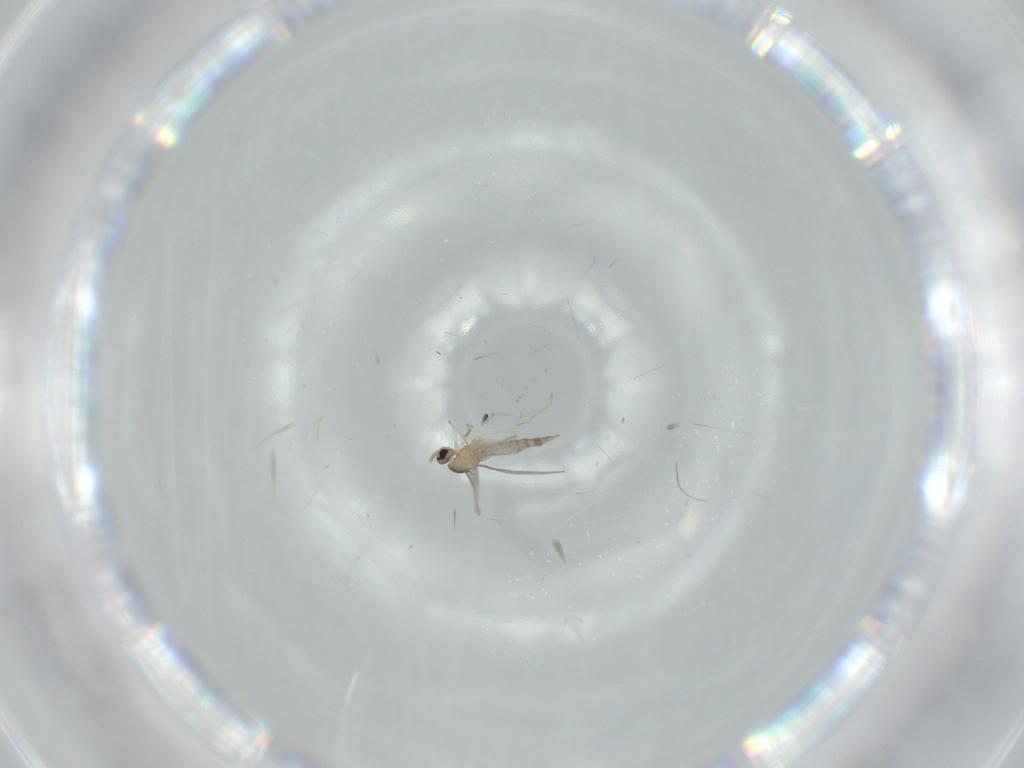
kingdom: Animalia
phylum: Arthropoda
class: Insecta
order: Diptera
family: Cecidomyiidae
